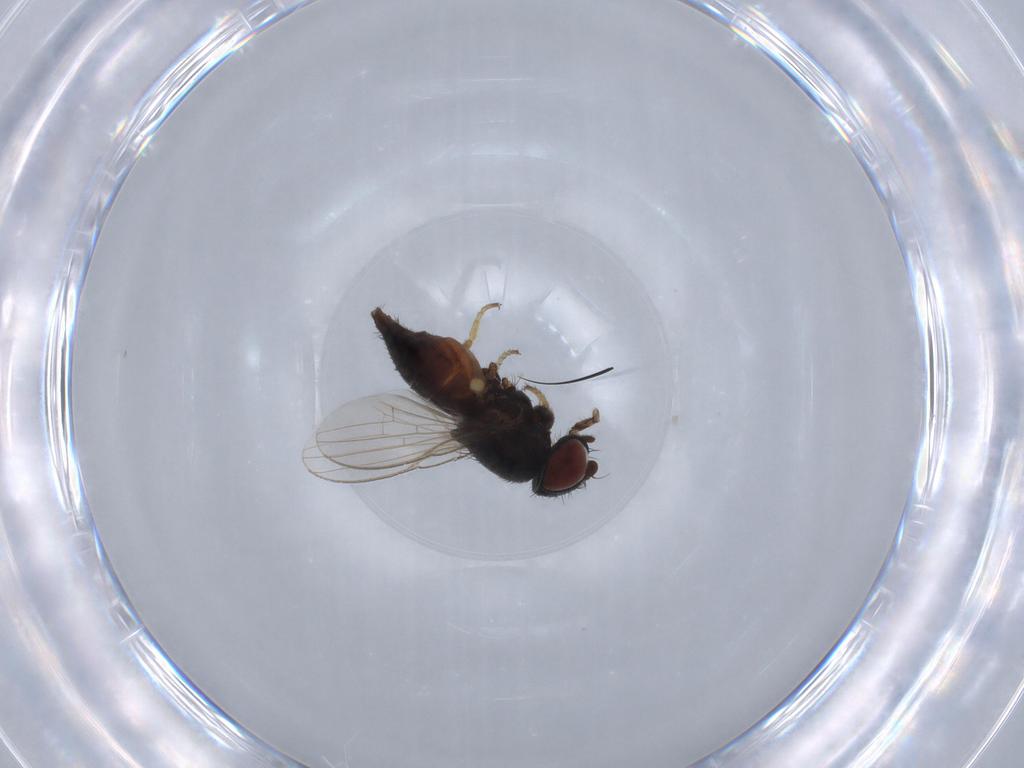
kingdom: Animalia
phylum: Arthropoda
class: Insecta
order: Diptera
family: Milichiidae
